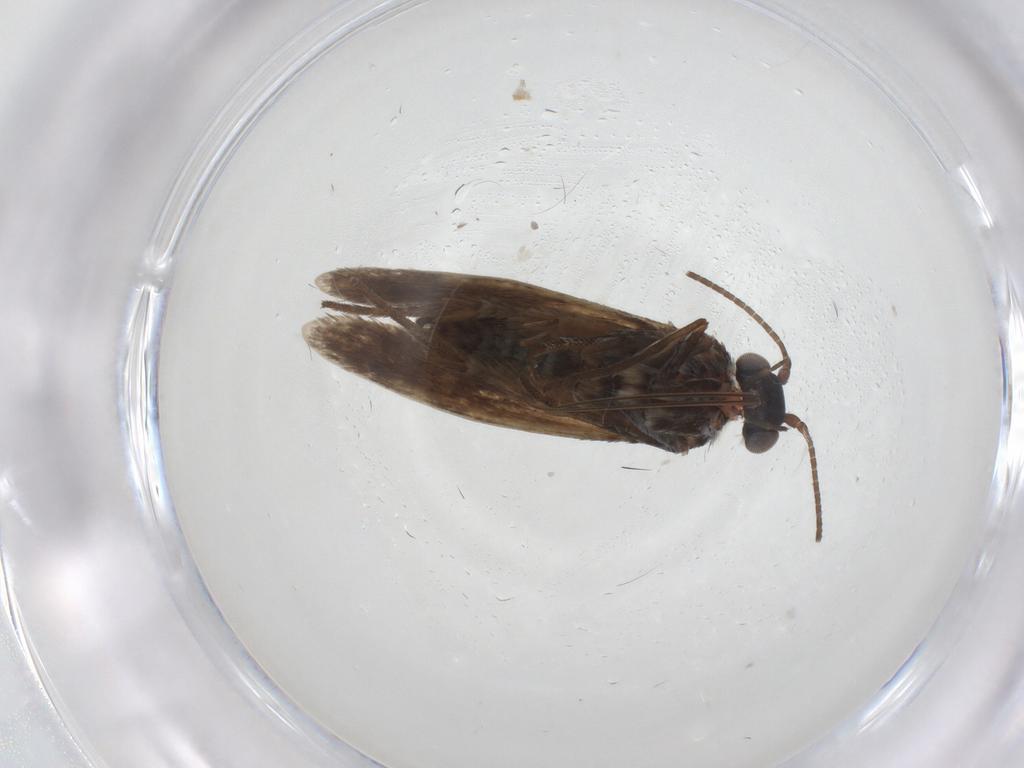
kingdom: Animalia
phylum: Arthropoda
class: Insecta
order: Lepidoptera
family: Adelidae
